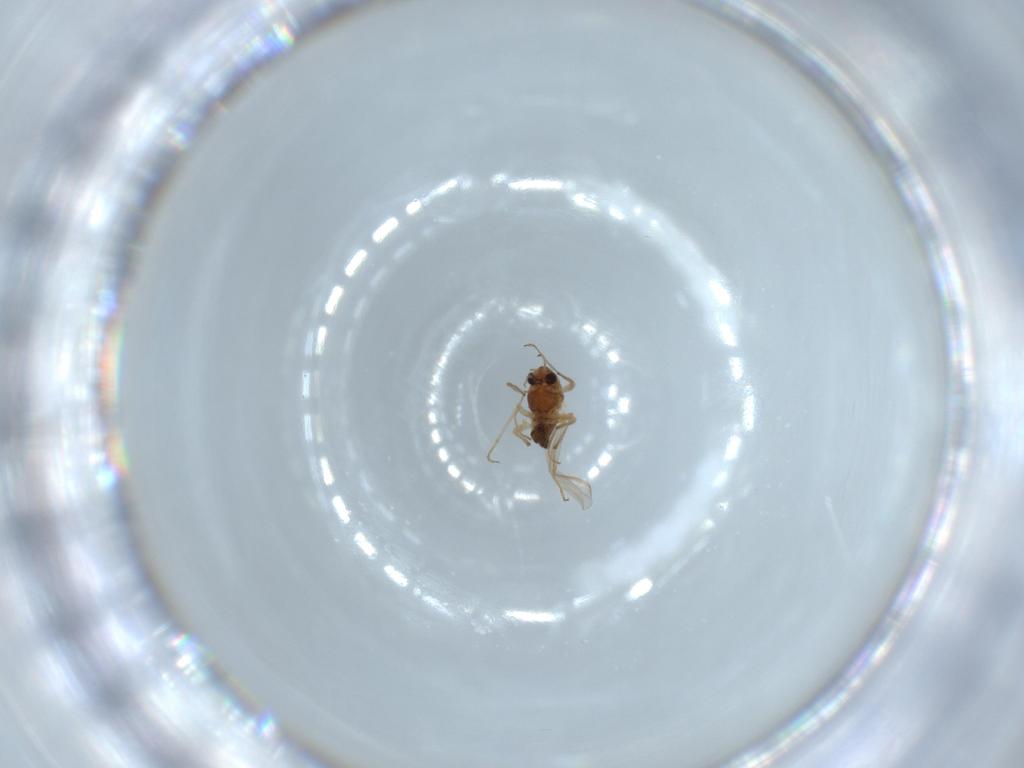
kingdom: Animalia
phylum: Arthropoda
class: Insecta
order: Diptera
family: Chironomidae
